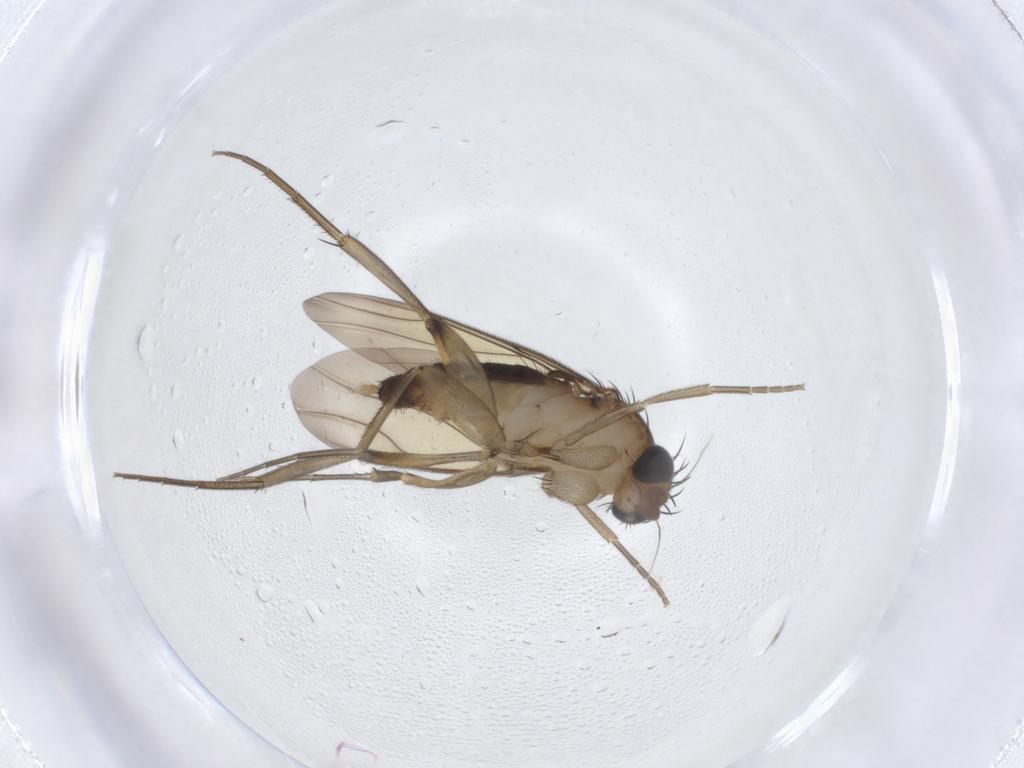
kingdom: Animalia
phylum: Arthropoda
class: Insecta
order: Diptera
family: Phoridae
